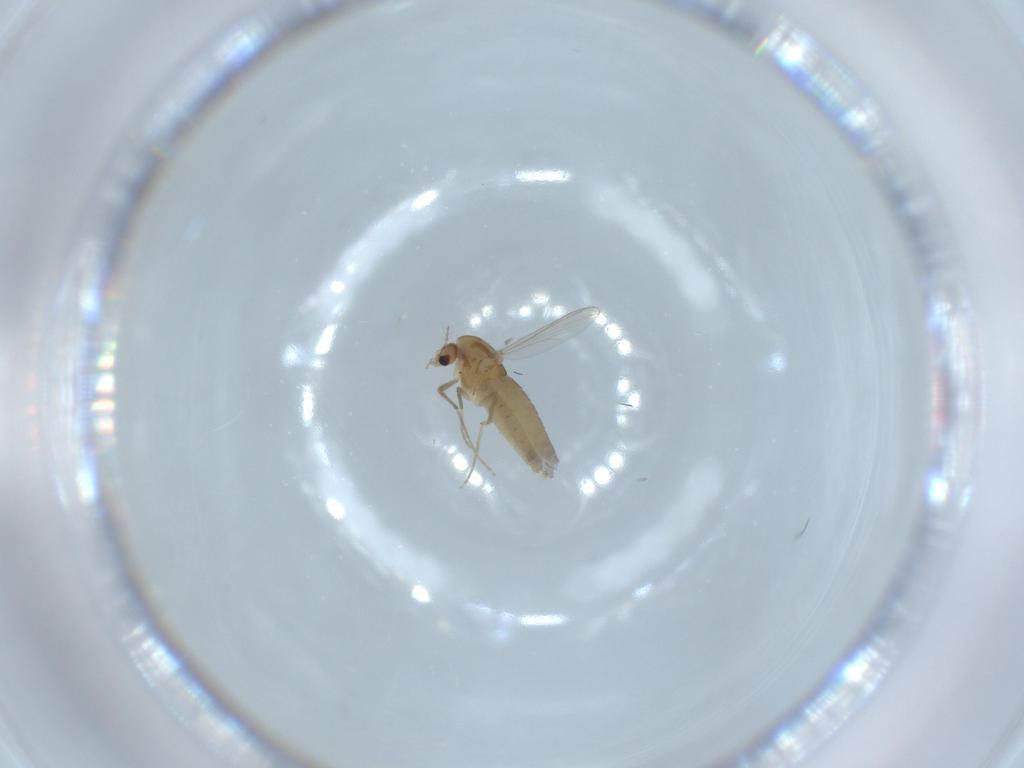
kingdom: Animalia
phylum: Arthropoda
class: Insecta
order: Diptera
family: Chironomidae
